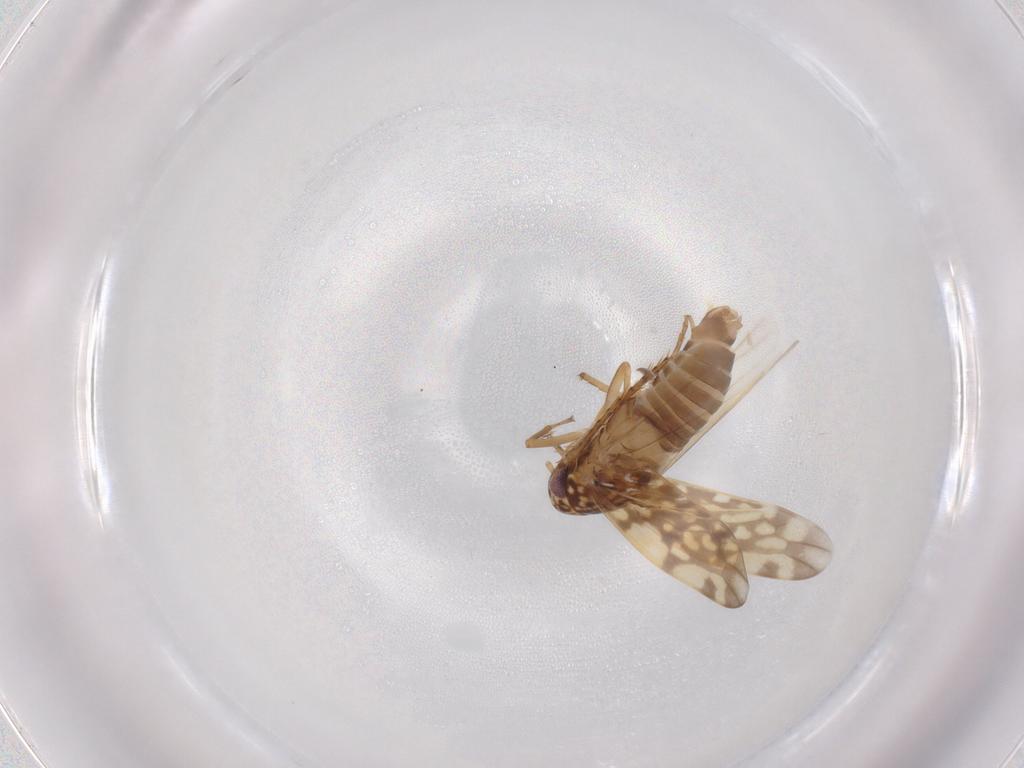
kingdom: Animalia
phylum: Arthropoda
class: Insecta
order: Hemiptera
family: Cicadellidae
